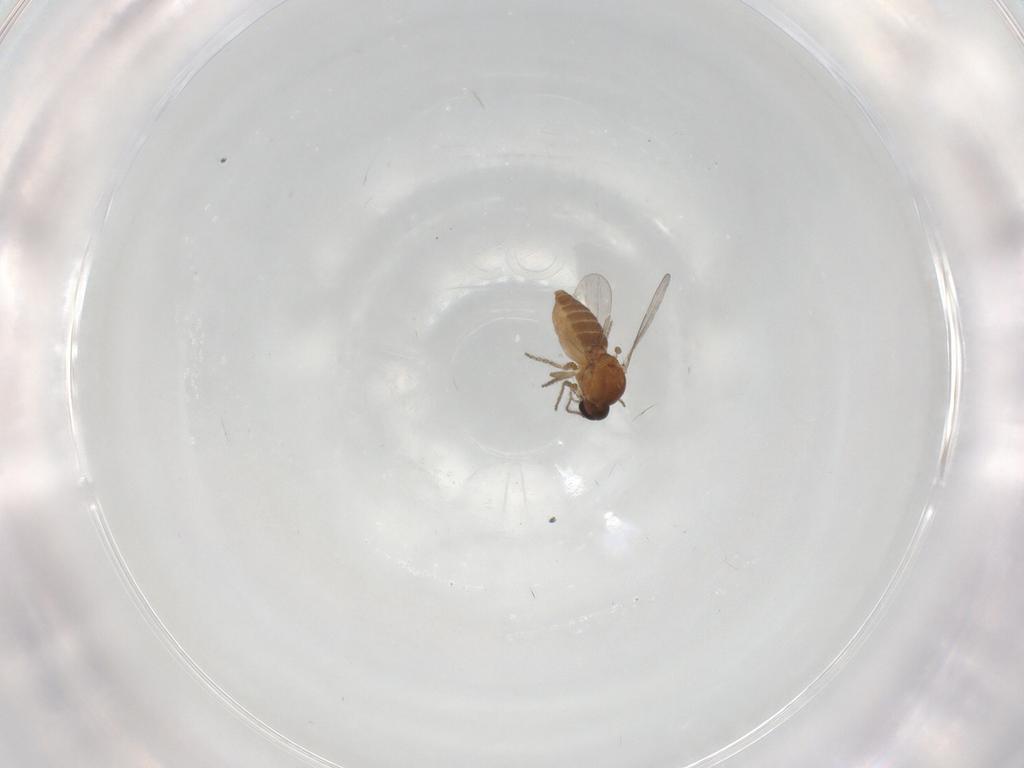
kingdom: Animalia
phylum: Arthropoda
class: Insecta
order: Diptera
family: Ceratopogonidae
